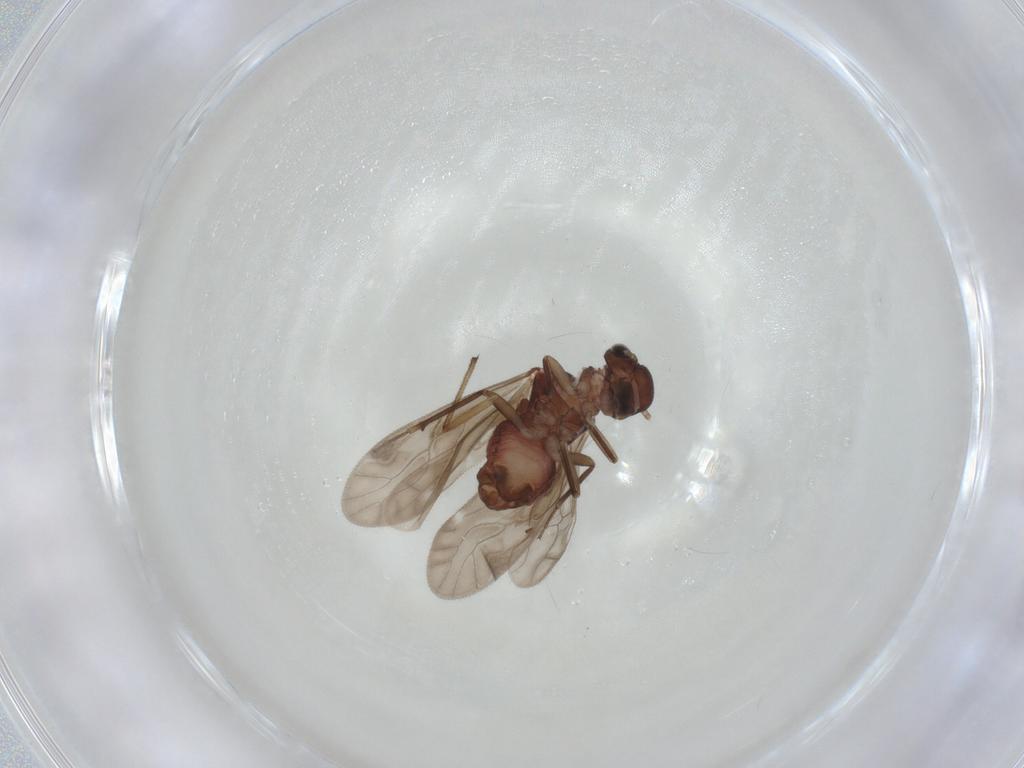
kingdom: Animalia
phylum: Arthropoda
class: Insecta
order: Psocodea
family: Caeciliusidae
